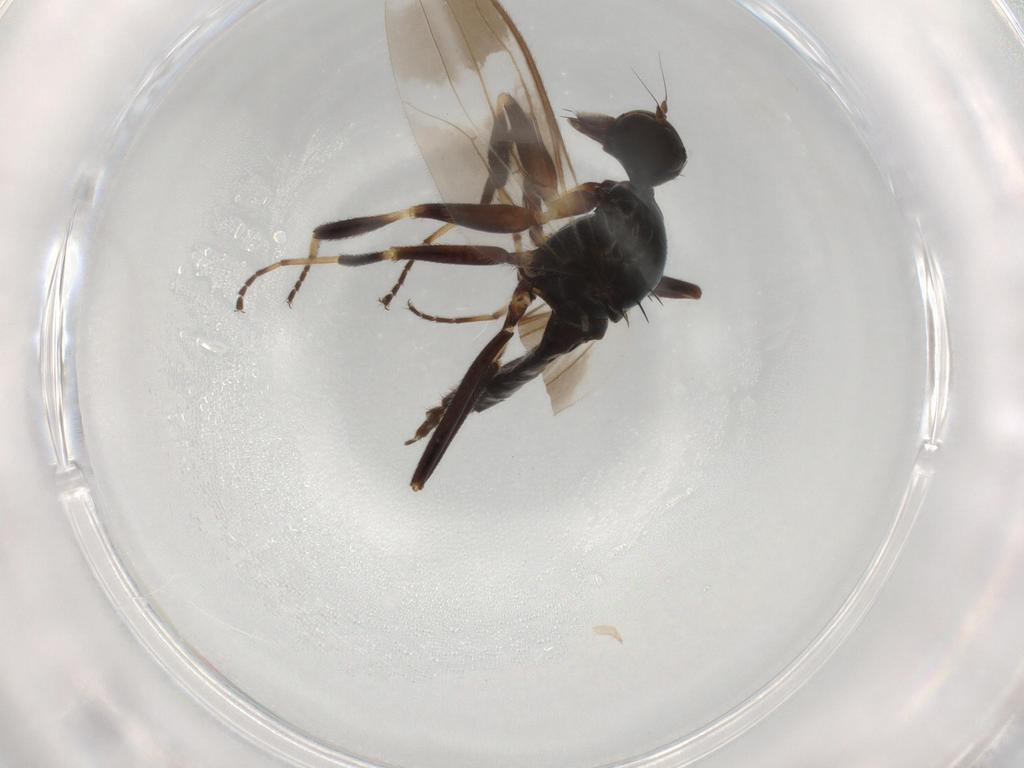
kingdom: Animalia
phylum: Arthropoda
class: Insecta
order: Diptera
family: Hybotidae
